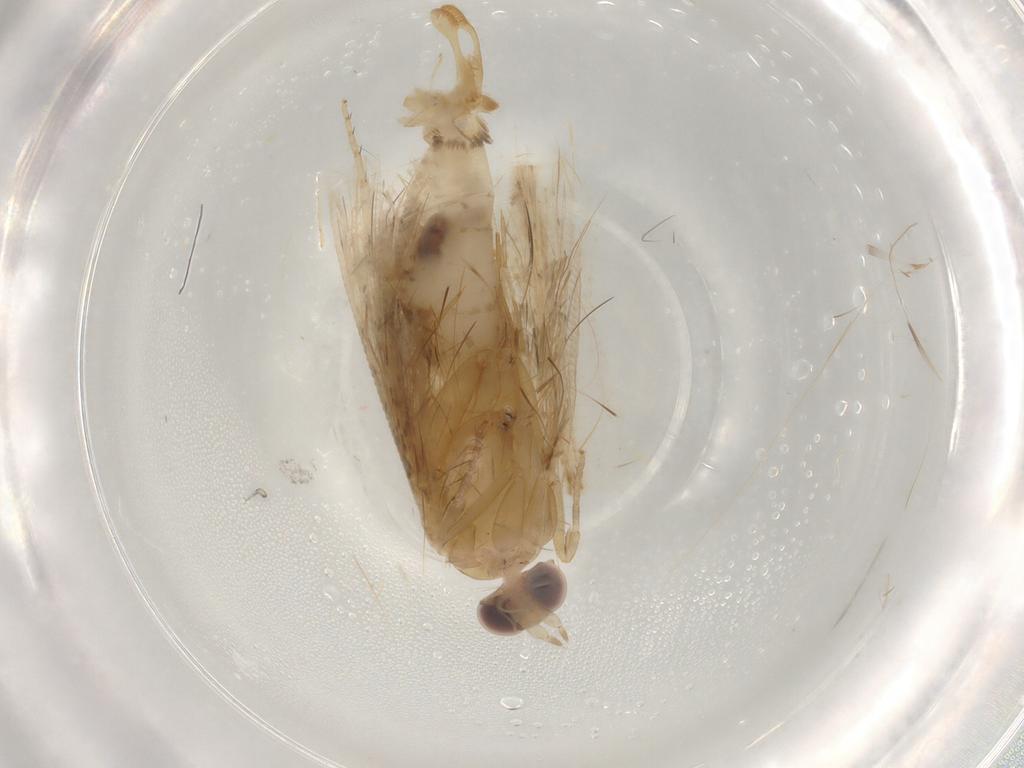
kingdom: Animalia
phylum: Arthropoda
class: Insecta
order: Lepidoptera
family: Tortricidae
